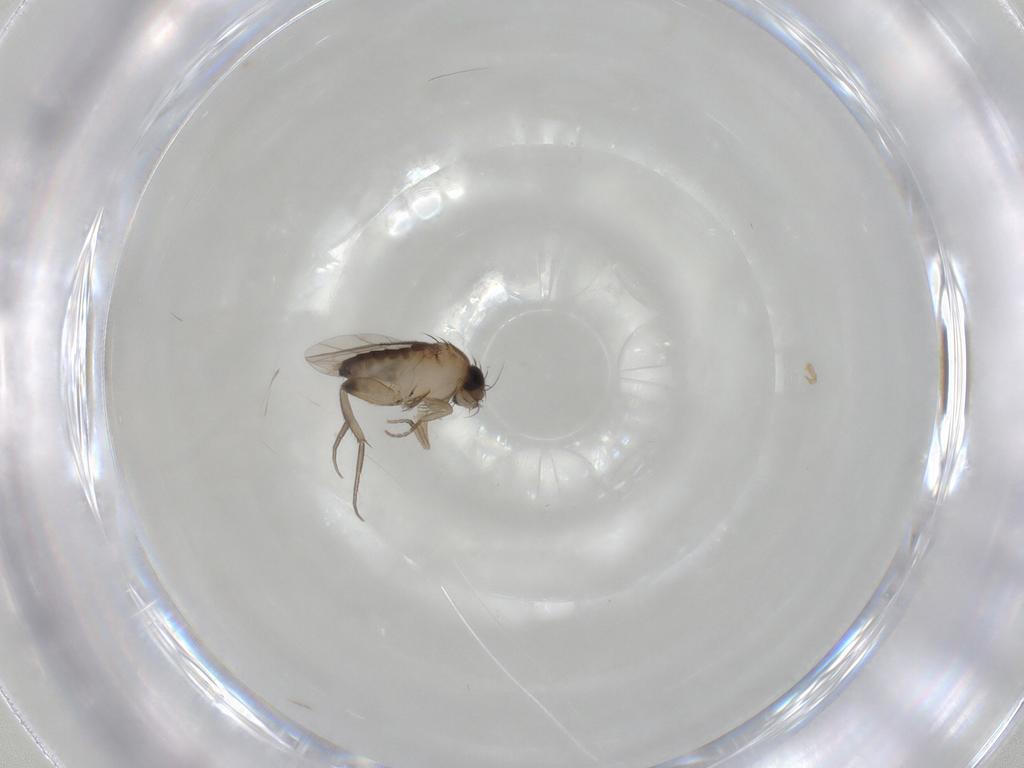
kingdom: Animalia
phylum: Arthropoda
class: Insecta
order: Diptera
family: Phoridae
